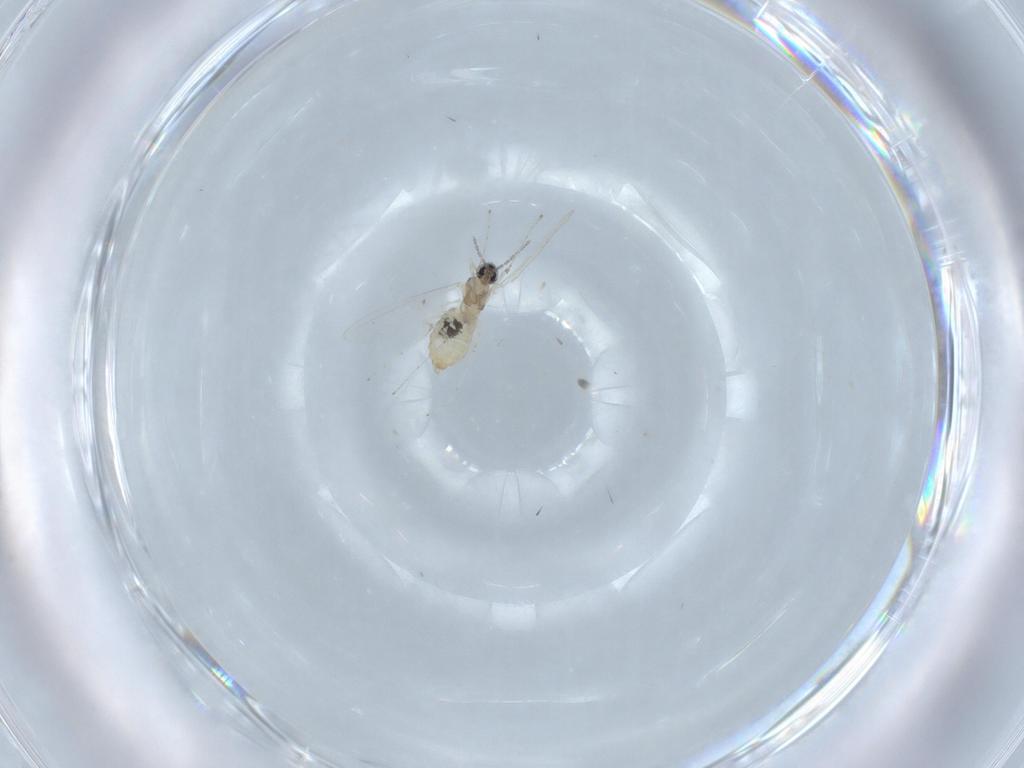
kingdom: Animalia
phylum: Arthropoda
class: Insecta
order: Diptera
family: Cecidomyiidae
